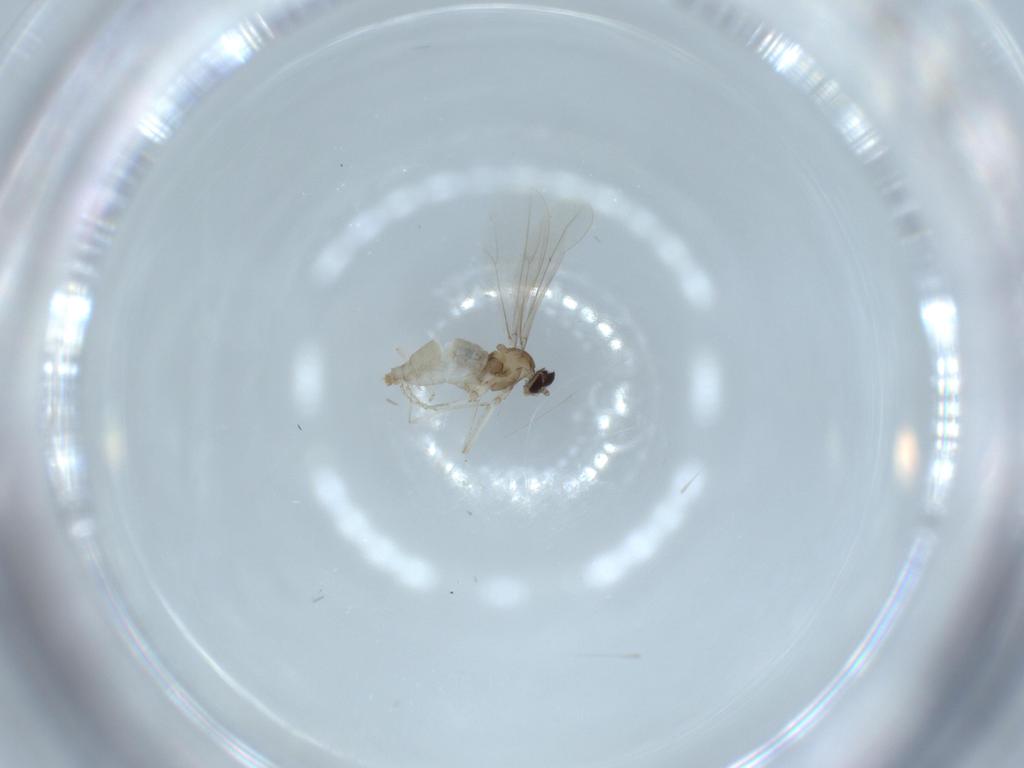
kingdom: Animalia
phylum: Arthropoda
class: Insecta
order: Diptera
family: Cecidomyiidae
